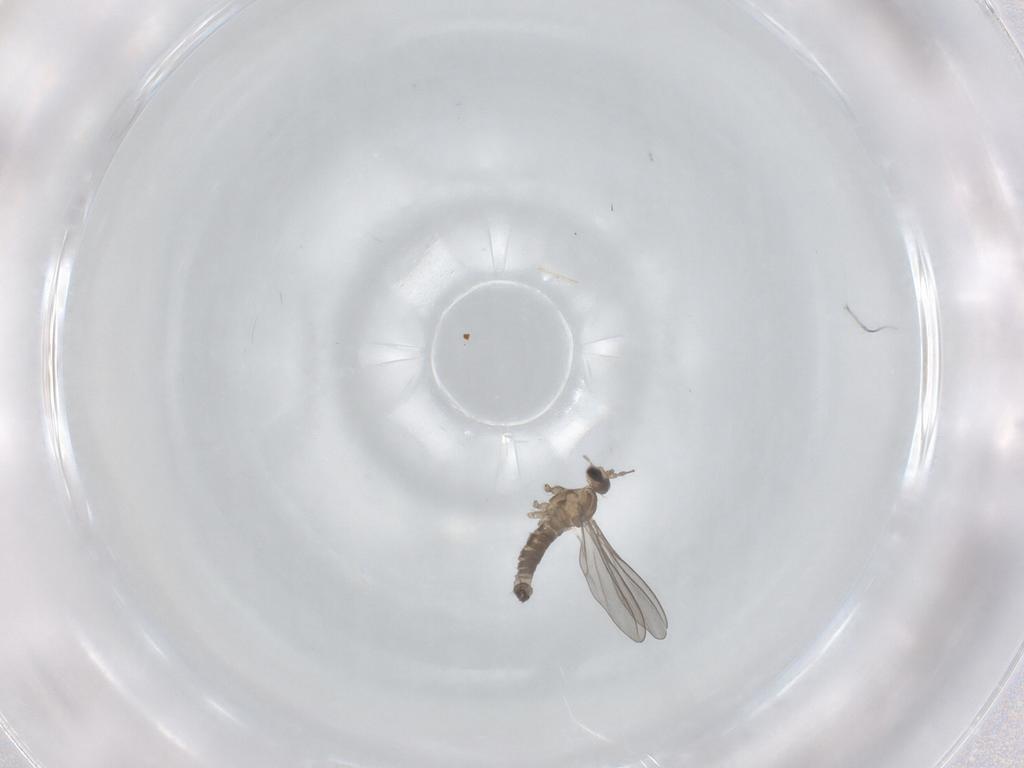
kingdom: Animalia
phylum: Arthropoda
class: Insecta
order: Diptera
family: Cecidomyiidae
